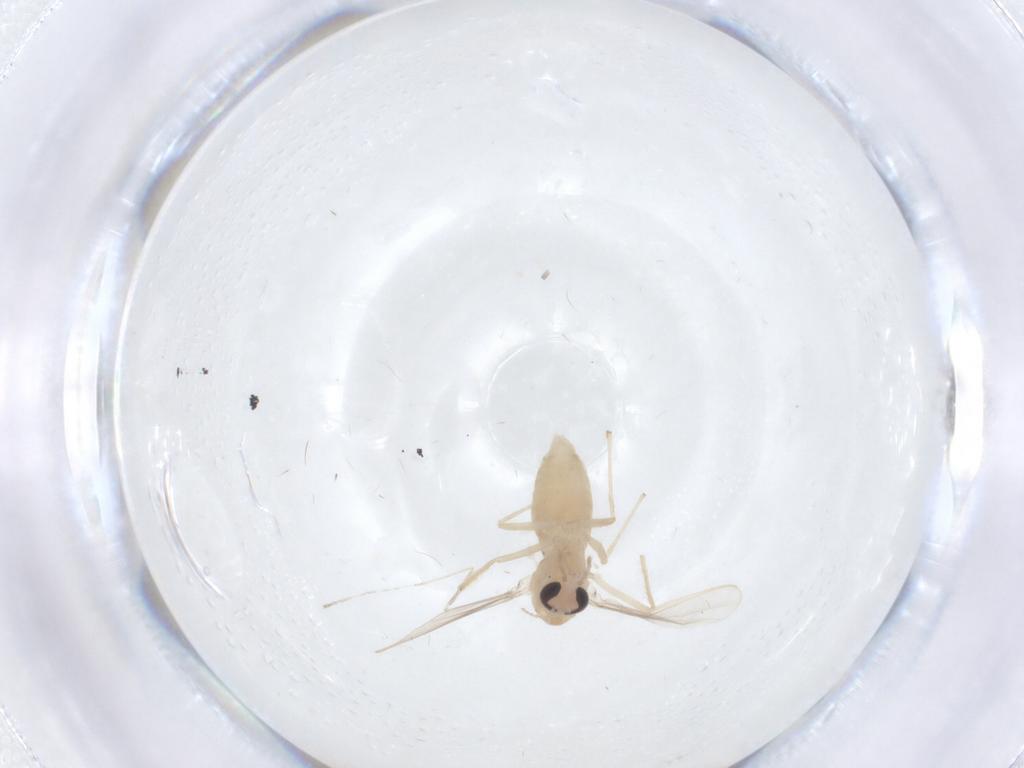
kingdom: Animalia
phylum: Arthropoda
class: Insecta
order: Diptera
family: Chironomidae
